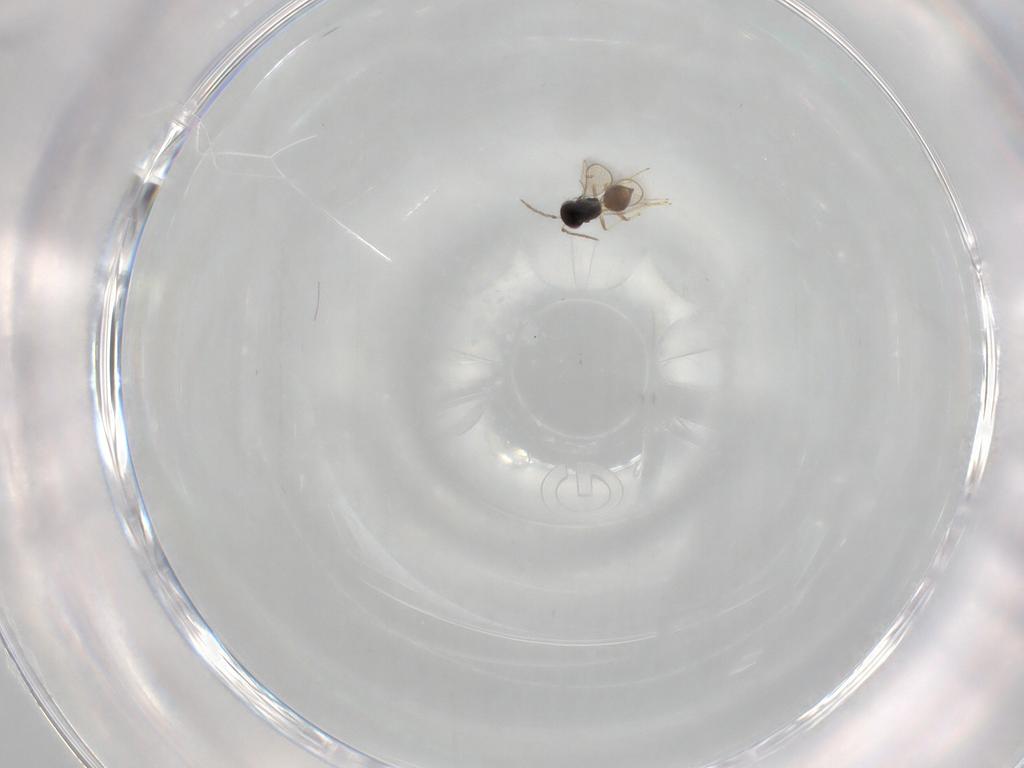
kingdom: Animalia
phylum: Arthropoda
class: Insecta
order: Hymenoptera
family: Eulophidae
